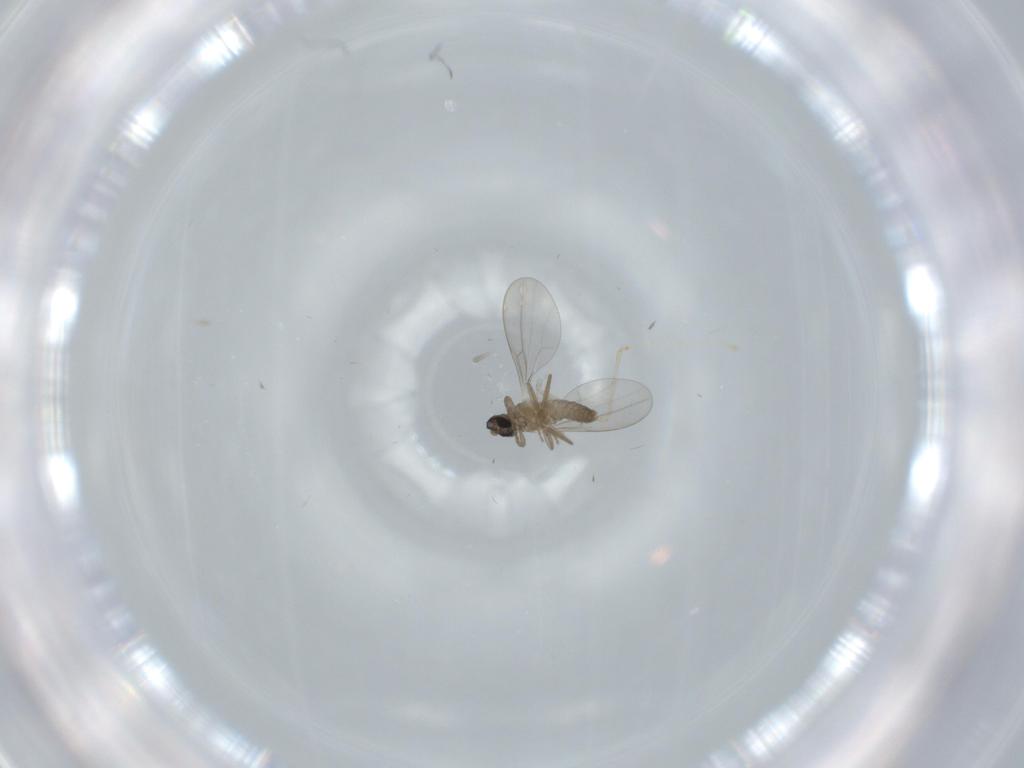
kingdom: Animalia
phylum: Arthropoda
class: Insecta
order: Diptera
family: Cecidomyiidae
